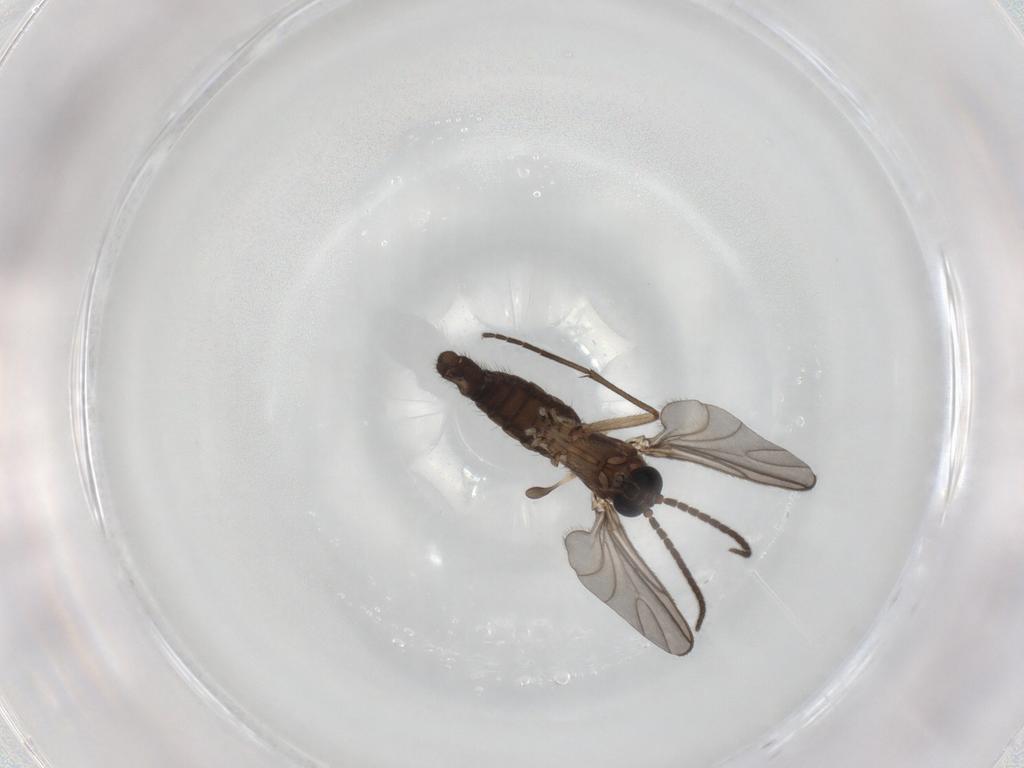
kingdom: Animalia
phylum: Arthropoda
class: Insecta
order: Diptera
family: Sciaridae
